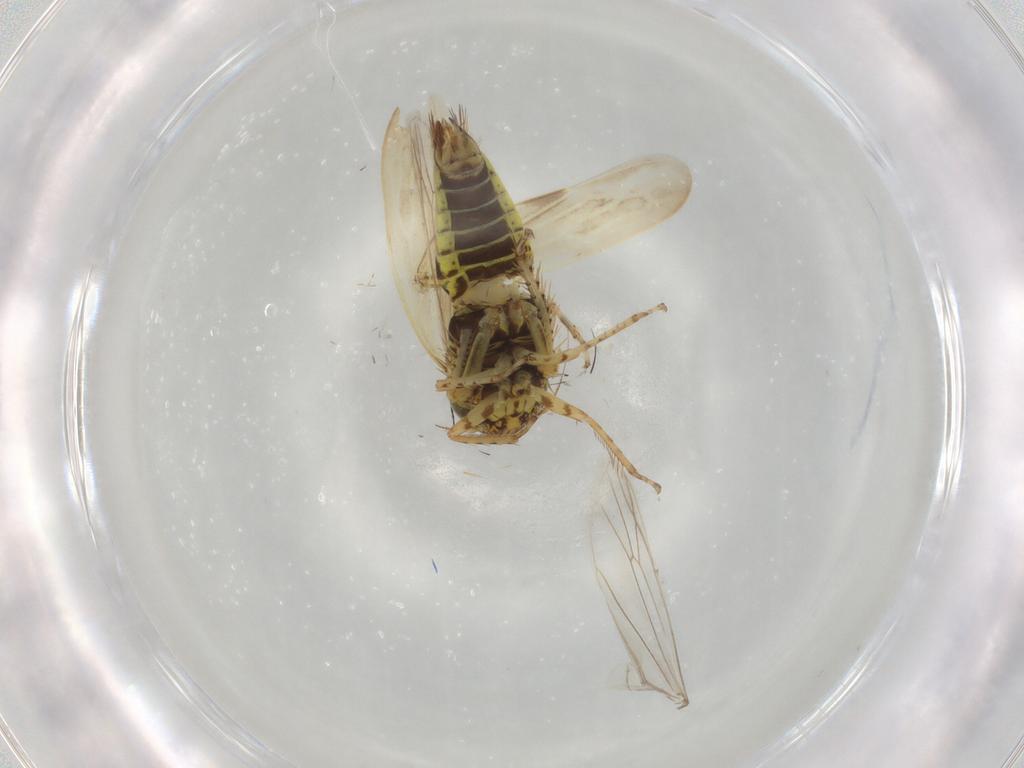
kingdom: Animalia
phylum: Arthropoda
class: Insecta
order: Hemiptera
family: Cicadellidae
